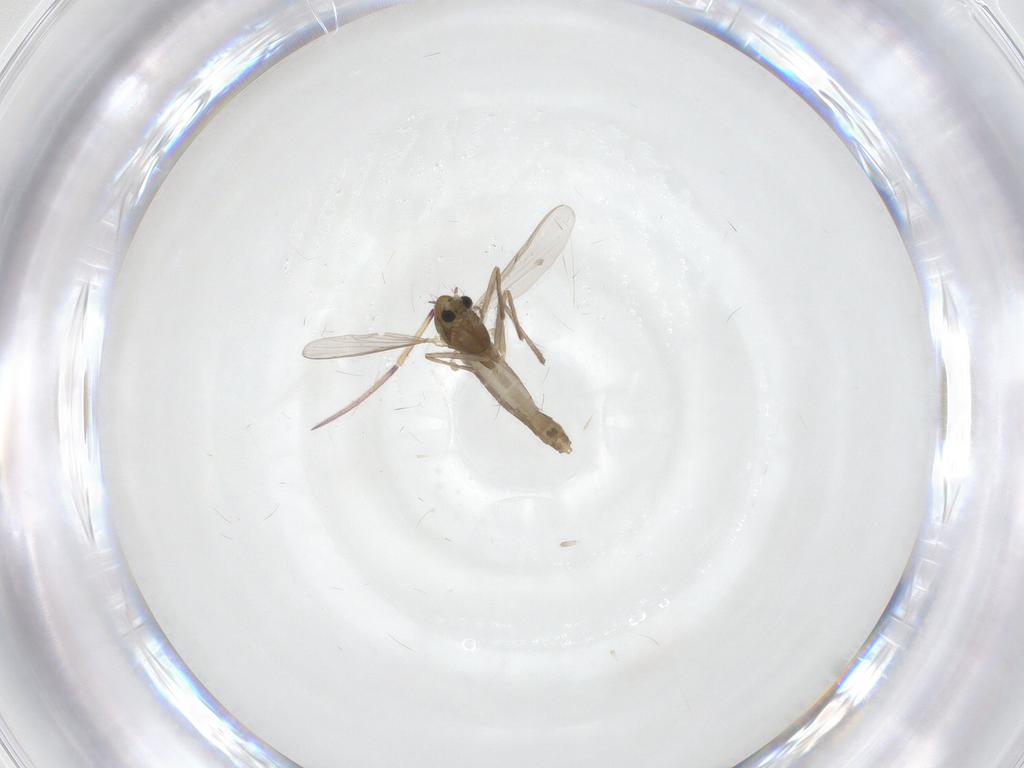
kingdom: Animalia
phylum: Arthropoda
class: Insecta
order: Diptera
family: Chironomidae
